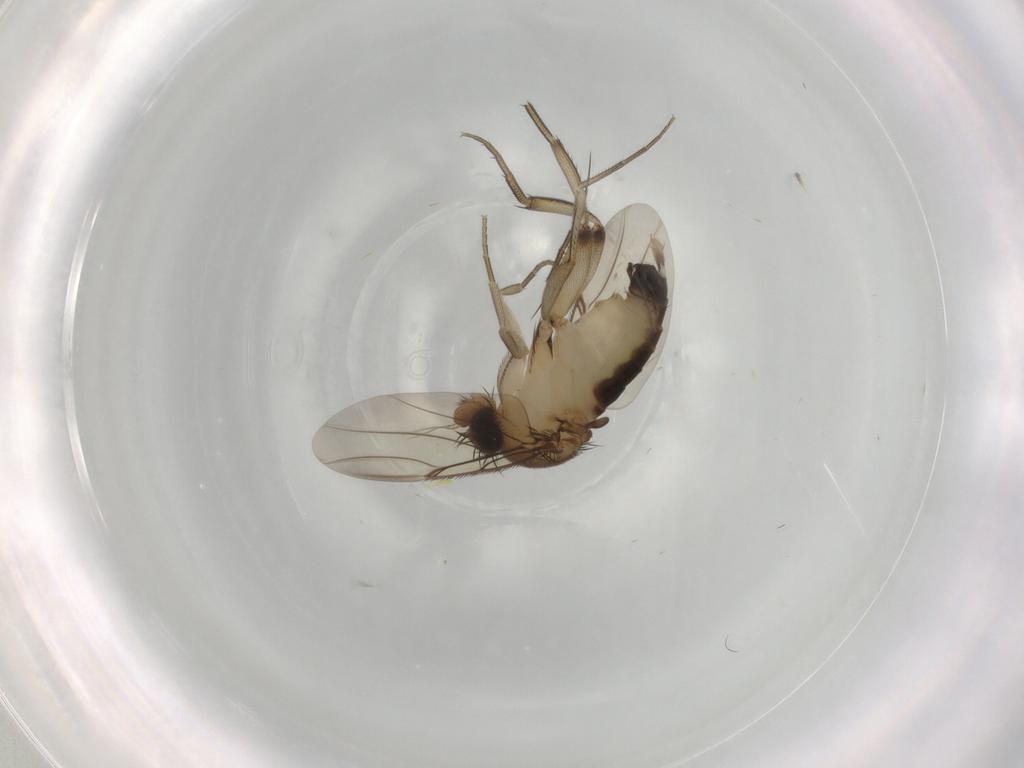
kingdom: Animalia
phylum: Arthropoda
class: Insecta
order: Diptera
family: Phoridae
